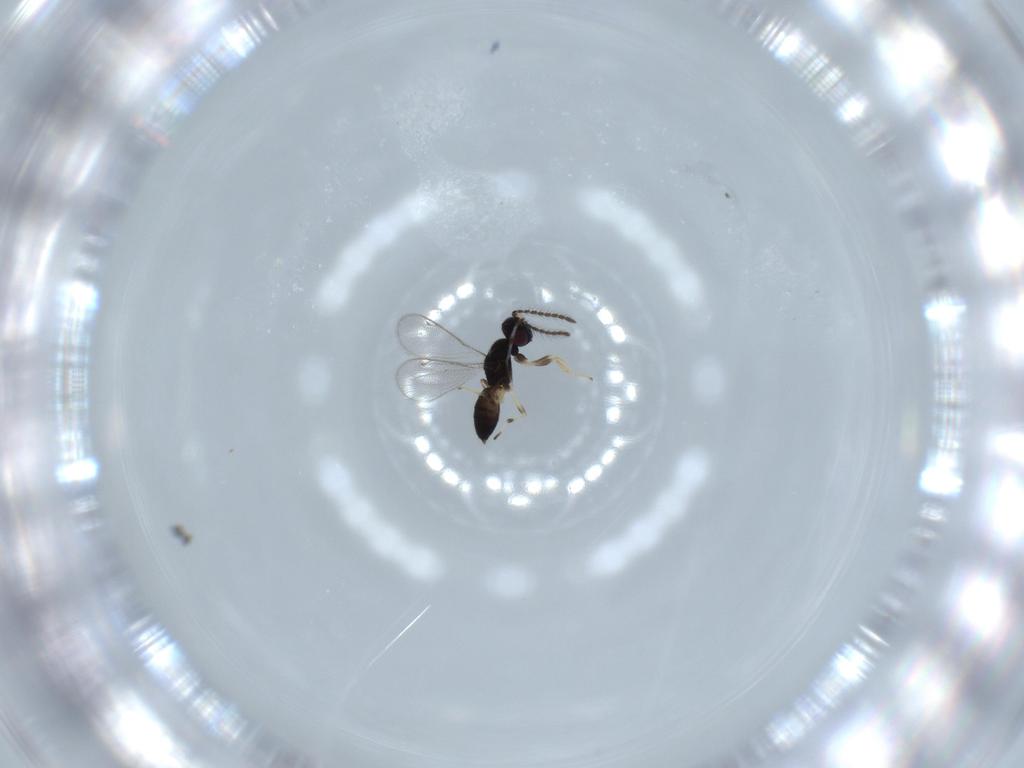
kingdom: Animalia
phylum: Arthropoda
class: Insecta
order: Hymenoptera
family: Eupelmidae
